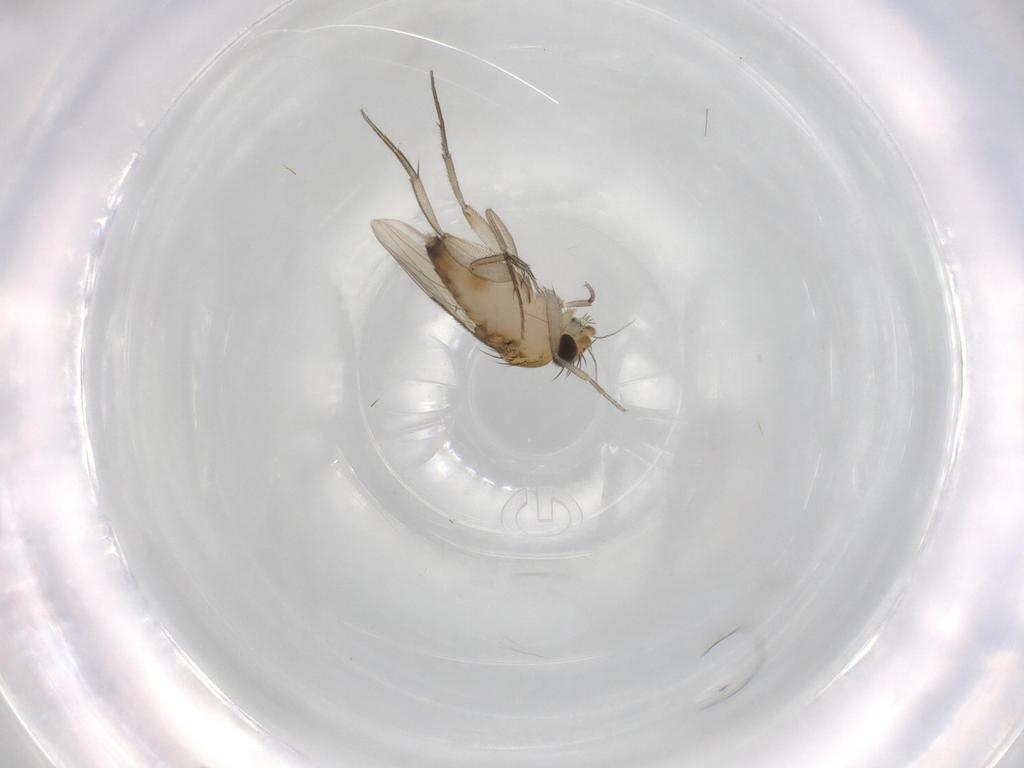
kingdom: Animalia
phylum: Arthropoda
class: Insecta
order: Diptera
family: Phoridae
